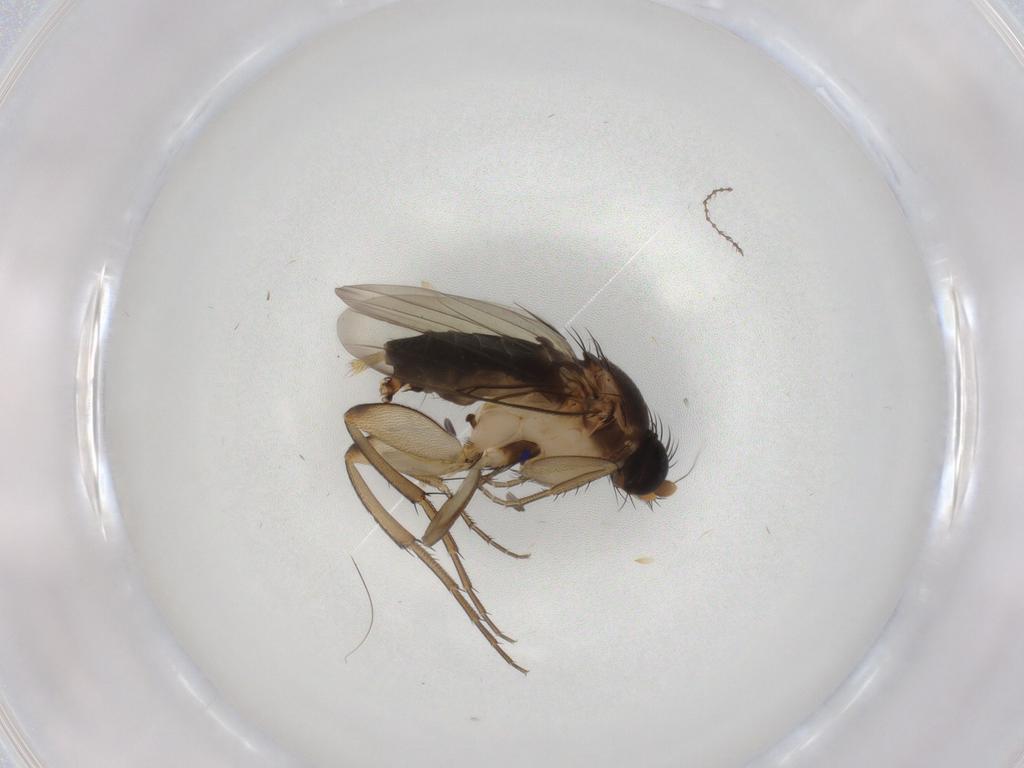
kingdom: Animalia
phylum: Arthropoda
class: Insecta
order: Diptera
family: Phoridae
